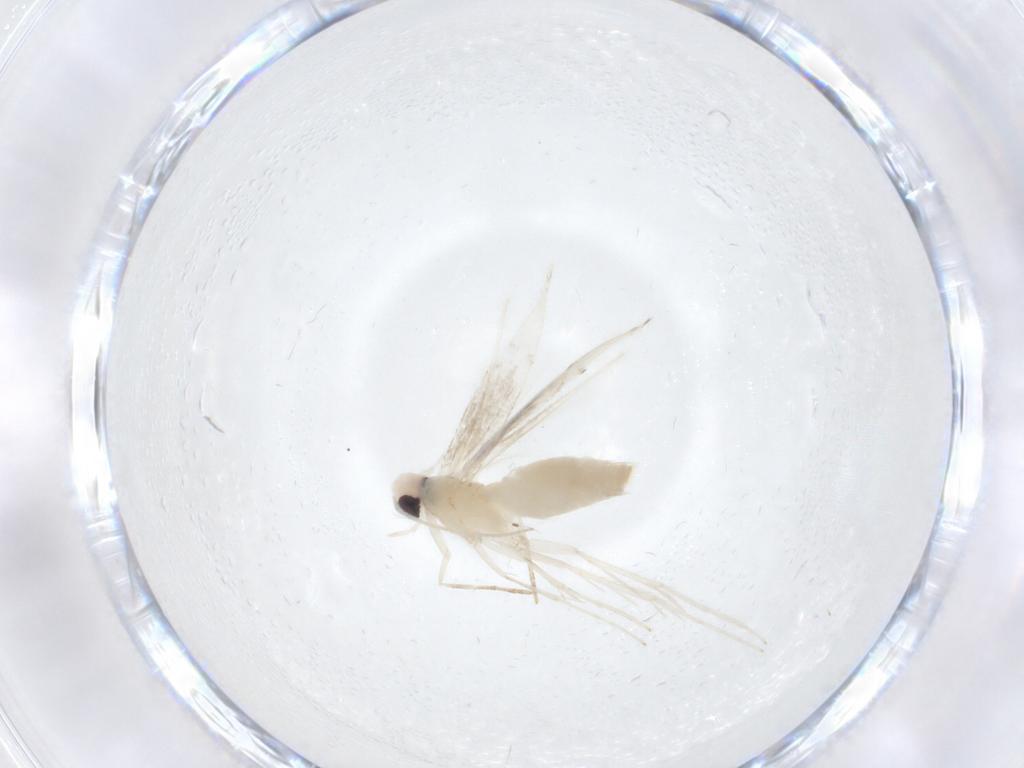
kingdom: Animalia
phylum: Arthropoda
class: Insecta
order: Lepidoptera
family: Gracillariidae
